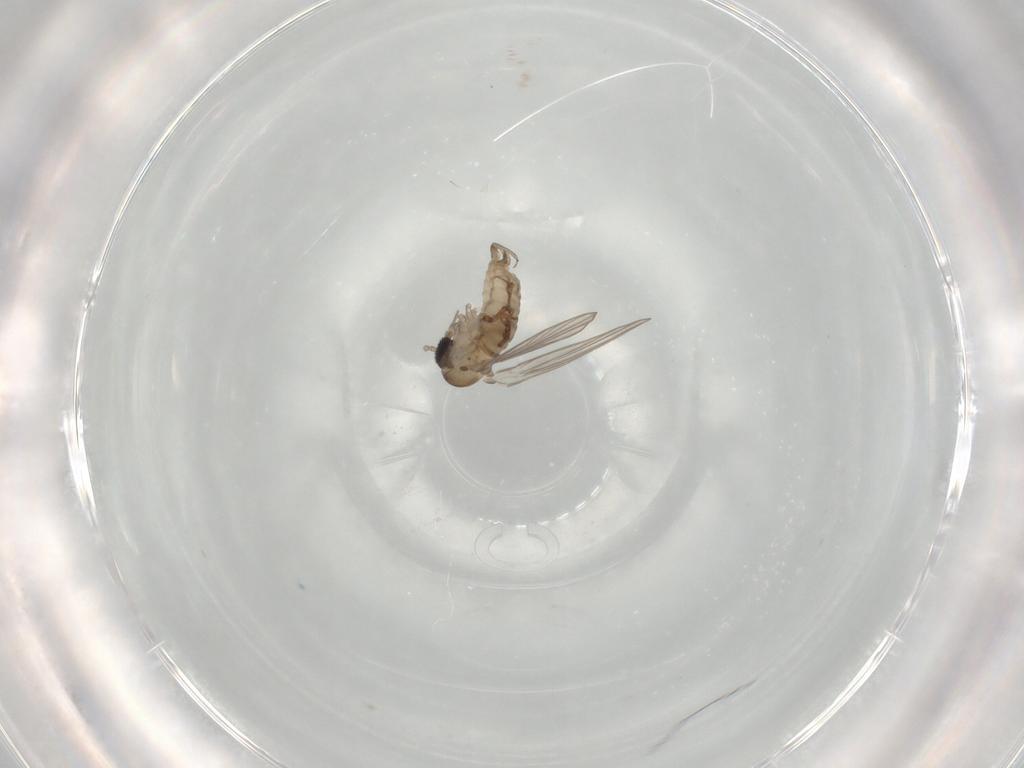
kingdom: Animalia
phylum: Arthropoda
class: Insecta
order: Diptera
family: Psychodidae
